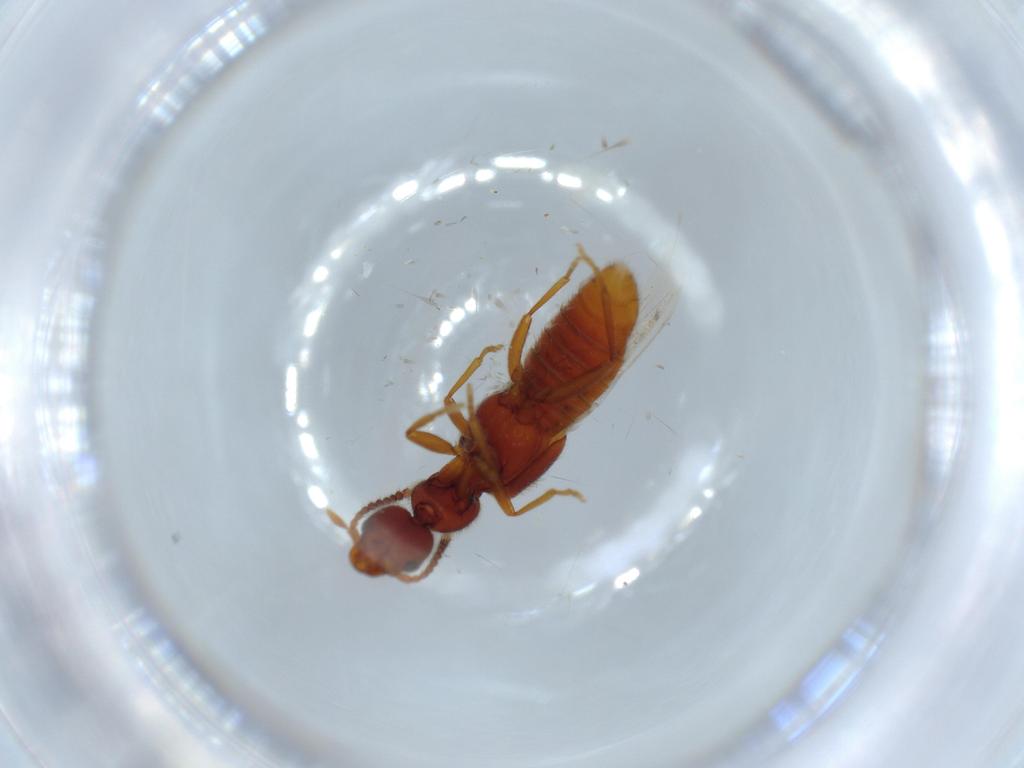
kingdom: Animalia
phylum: Arthropoda
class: Insecta
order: Coleoptera
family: Bostrichidae
